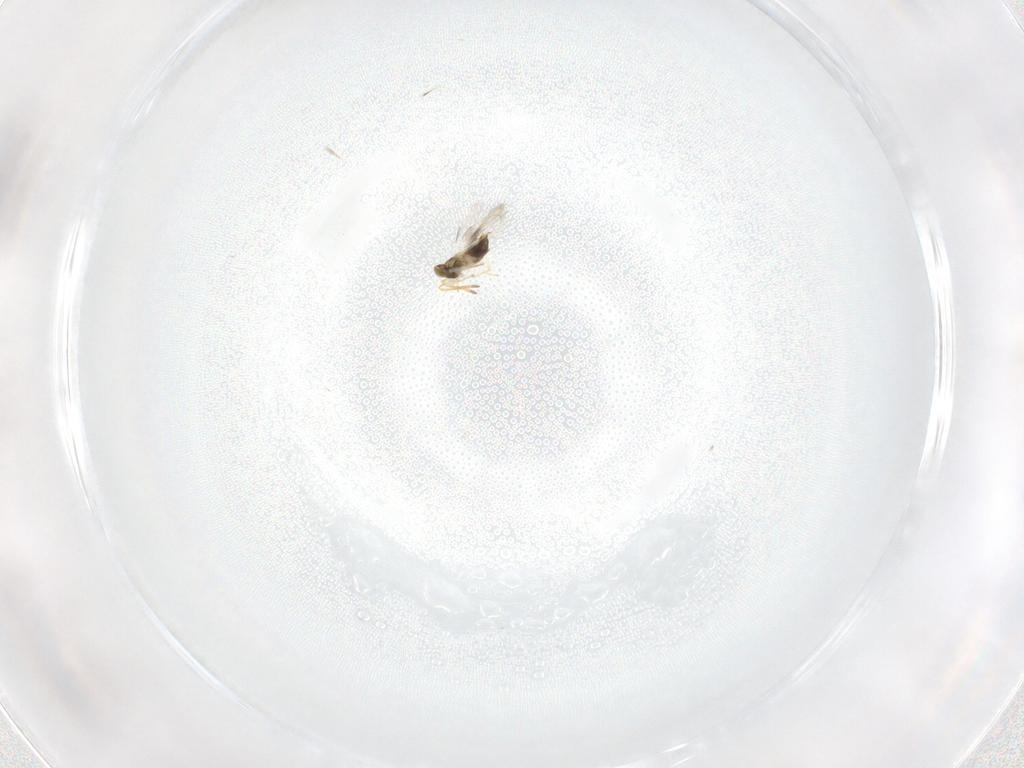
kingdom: Animalia
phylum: Arthropoda
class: Insecta
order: Hymenoptera
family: Aphelinidae
